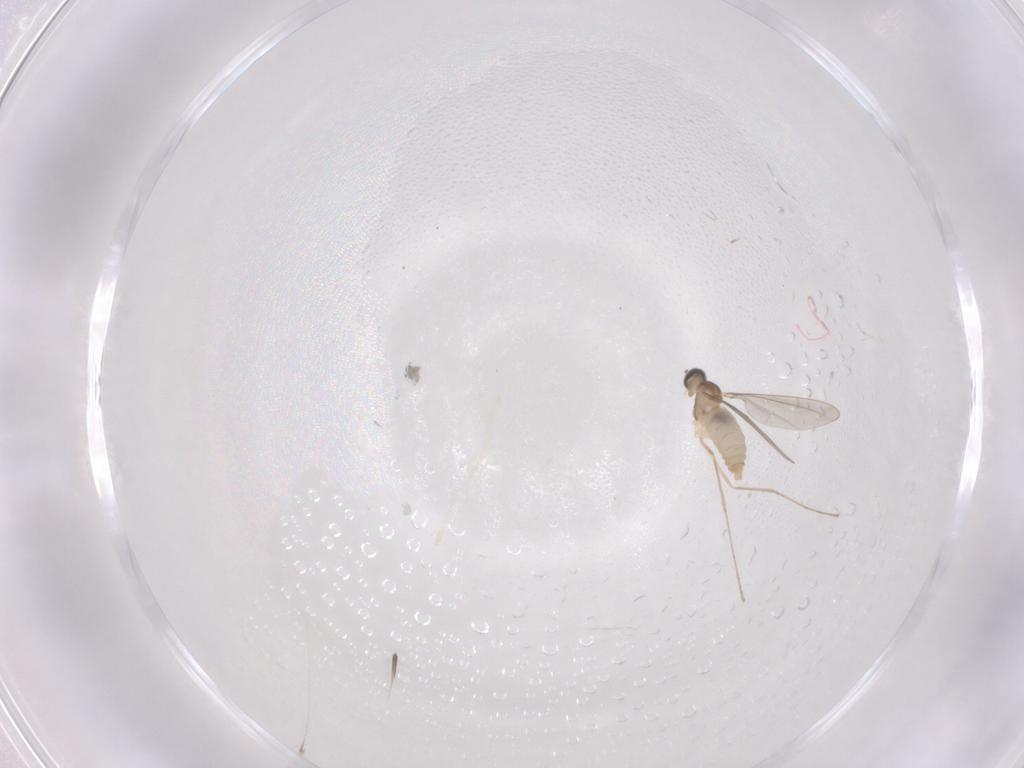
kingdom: Animalia
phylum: Arthropoda
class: Insecta
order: Diptera
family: Cecidomyiidae
